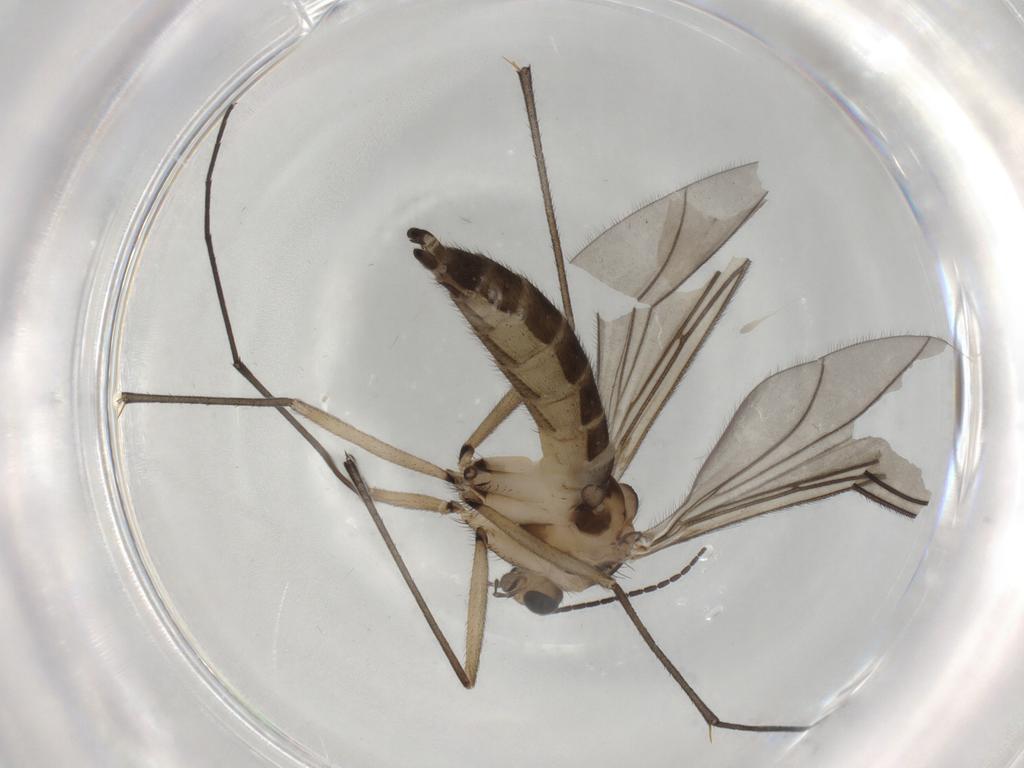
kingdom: Animalia
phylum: Arthropoda
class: Insecta
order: Diptera
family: Sciaridae
